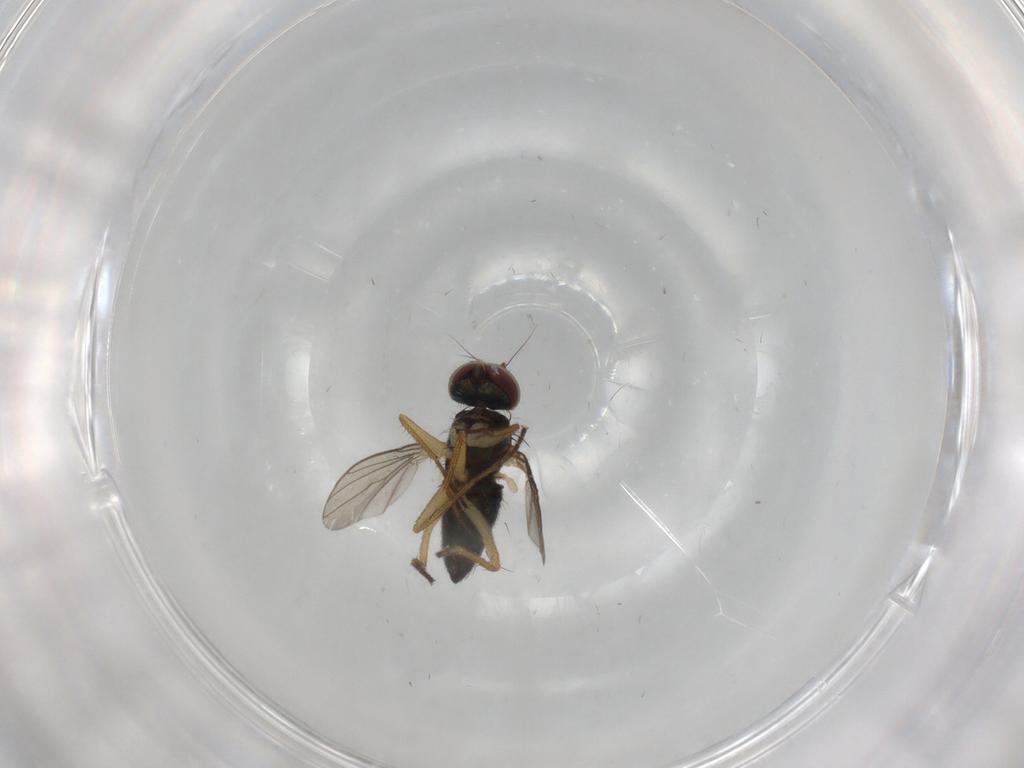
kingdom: Animalia
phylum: Arthropoda
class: Insecta
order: Diptera
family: Dolichopodidae
